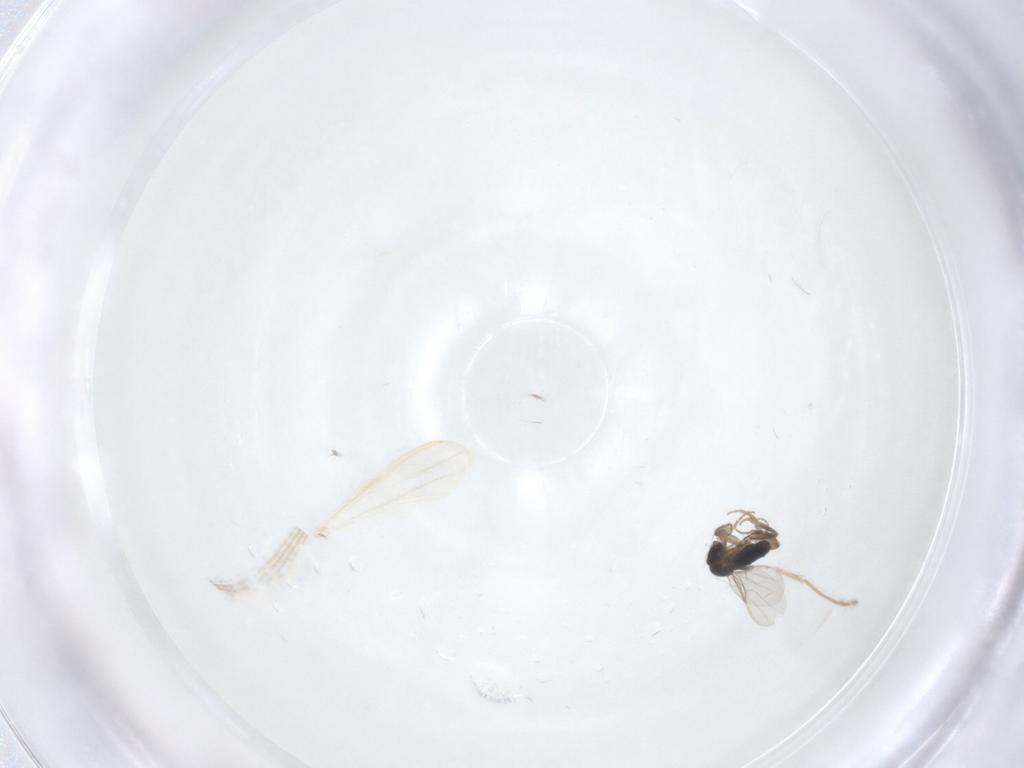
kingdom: Animalia
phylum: Arthropoda
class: Insecta
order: Diptera
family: Phoridae
